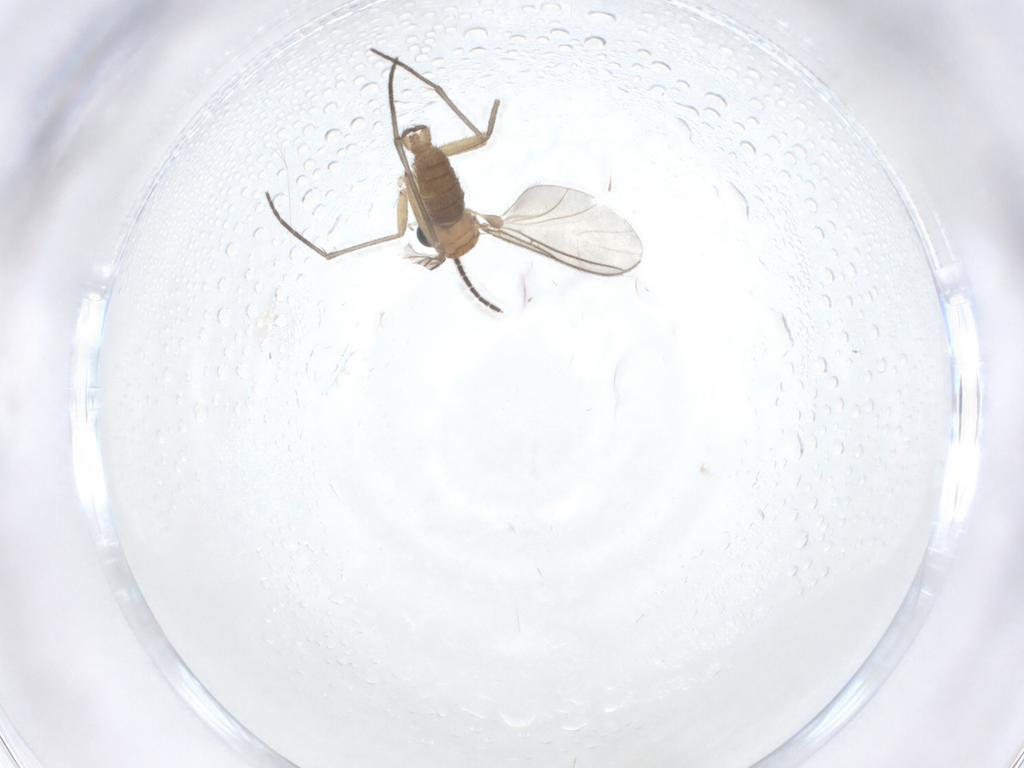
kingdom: Animalia
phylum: Arthropoda
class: Insecta
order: Diptera
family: Sciaridae
